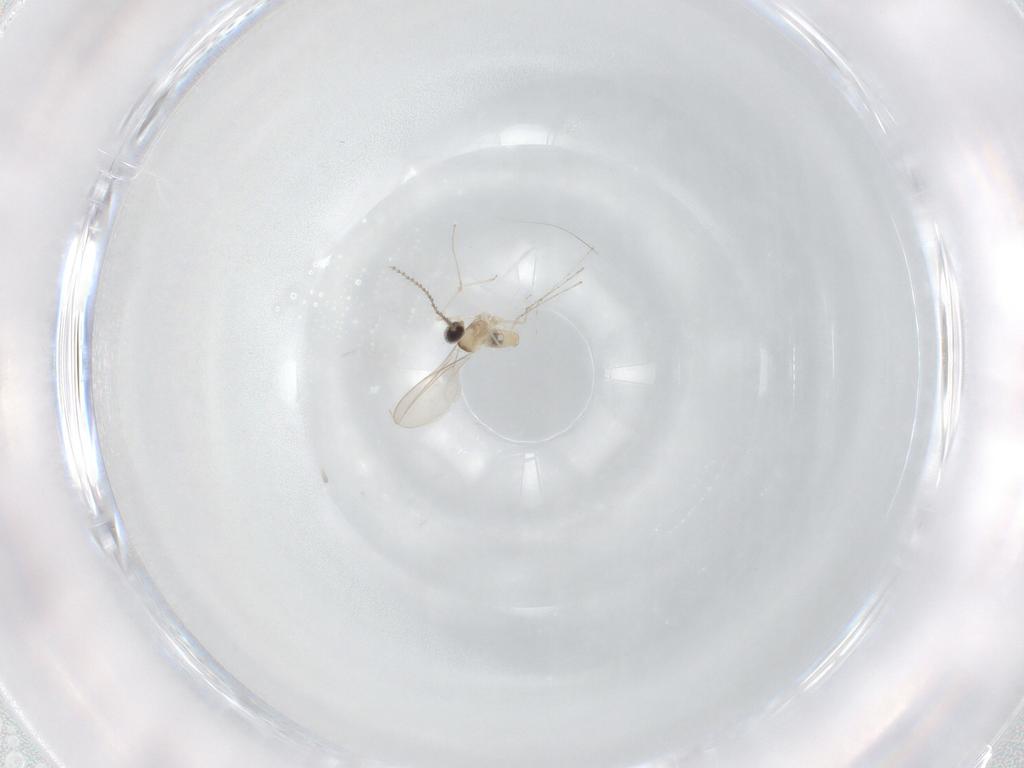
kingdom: Animalia
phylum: Arthropoda
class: Insecta
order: Diptera
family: Cecidomyiidae
